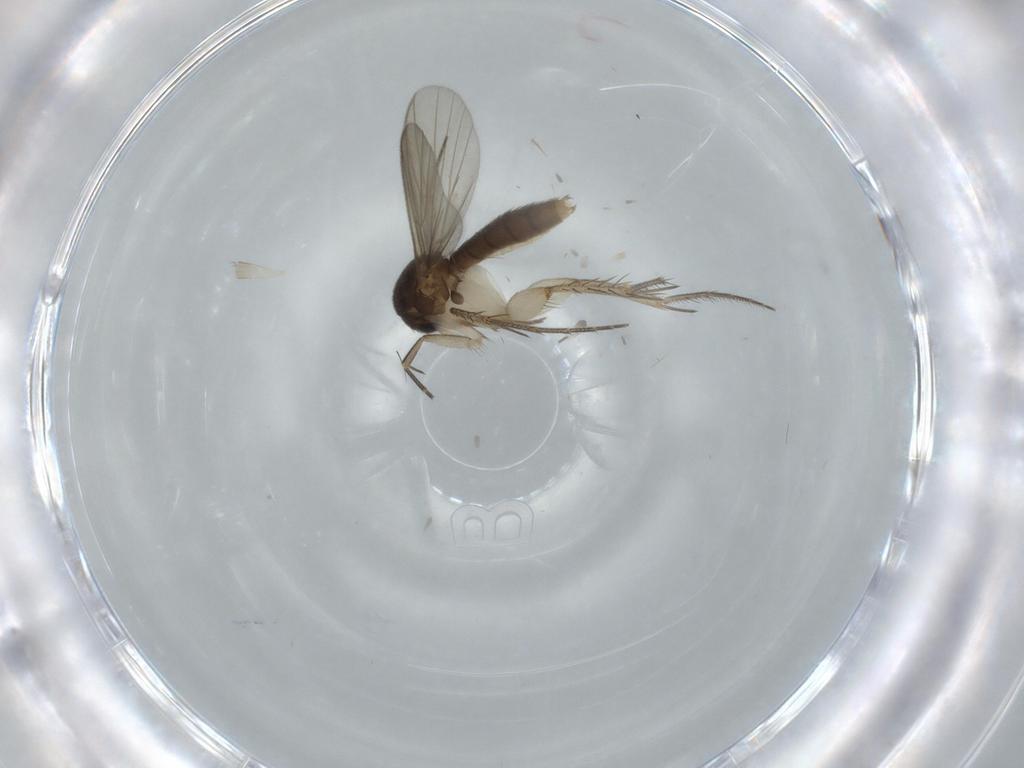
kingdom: Animalia
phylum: Arthropoda
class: Insecta
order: Diptera
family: Mycetophilidae
